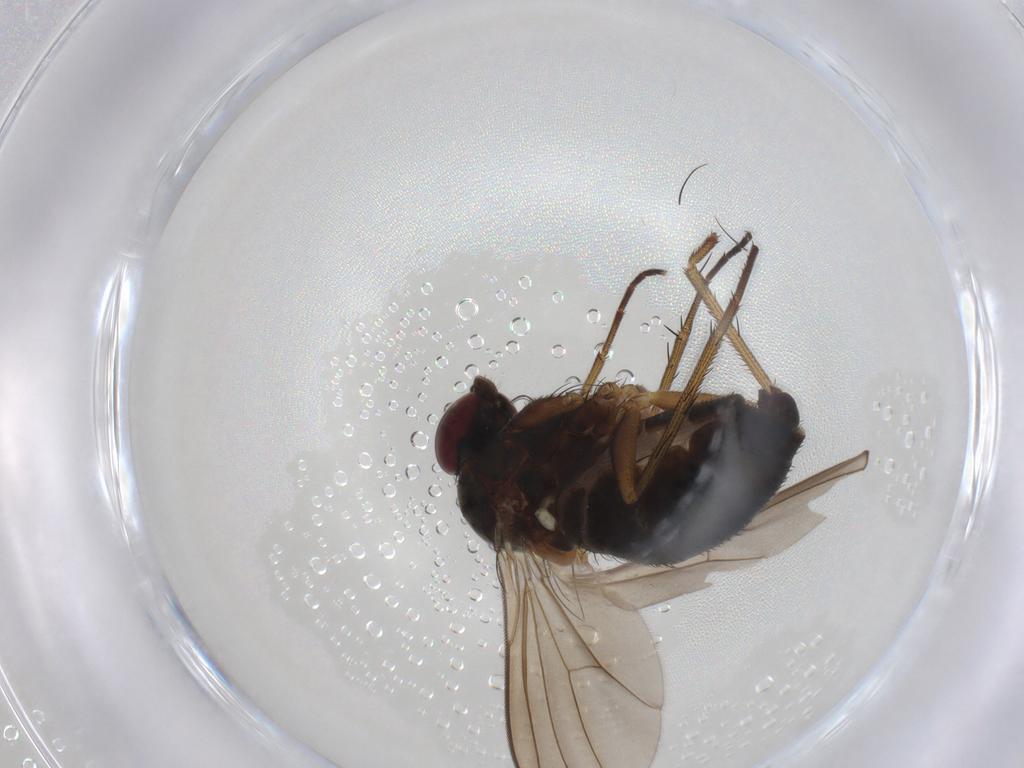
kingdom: Animalia
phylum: Arthropoda
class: Insecta
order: Diptera
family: Dolichopodidae
